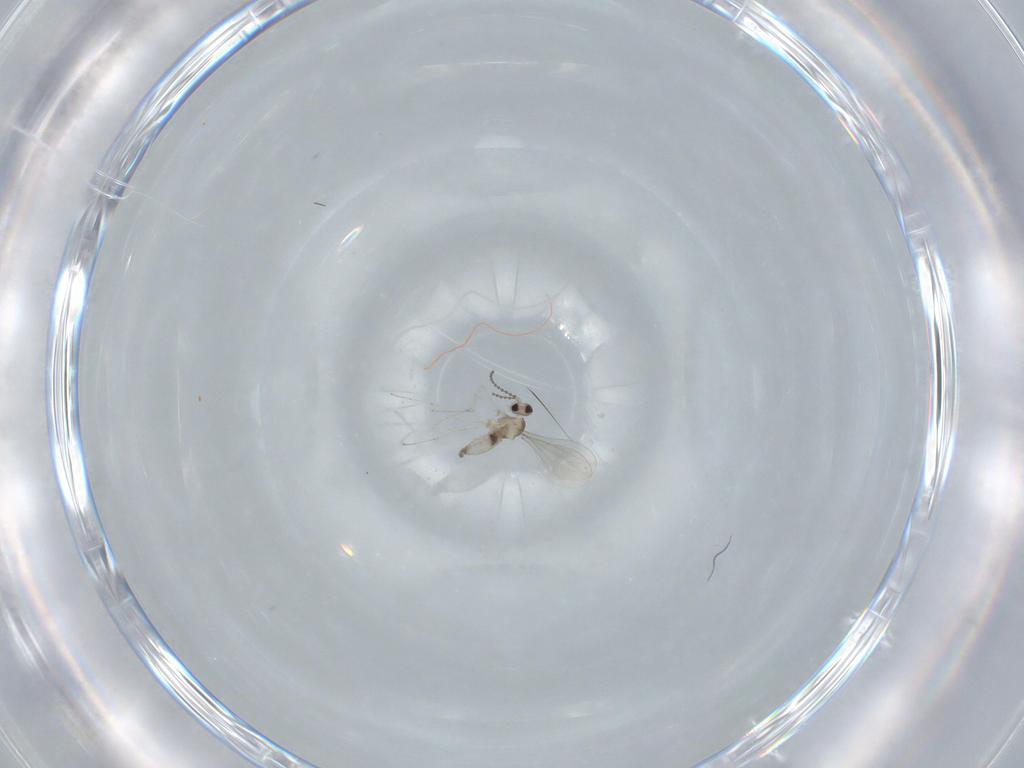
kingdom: Animalia
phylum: Arthropoda
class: Insecta
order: Diptera
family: Cecidomyiidae
